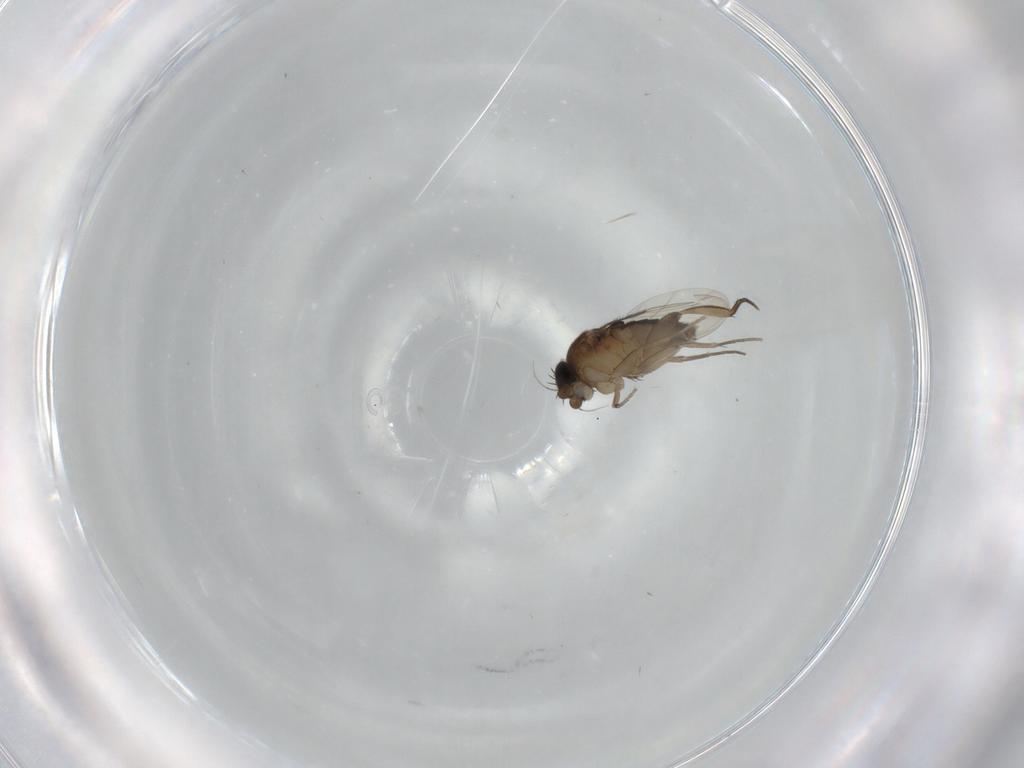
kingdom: Animalia
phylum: Arthropoda
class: Insecta
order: Diptera
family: Phoridae
